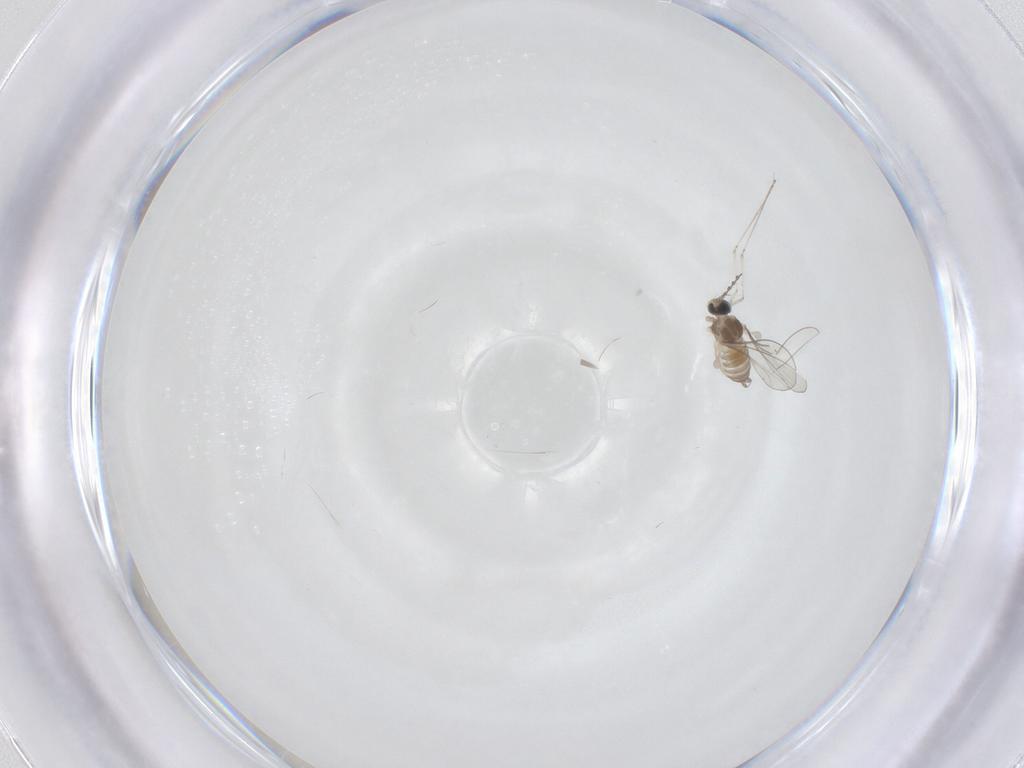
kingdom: Animalia
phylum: Arthropoda
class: Insecta
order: Diptera
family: Cecidomyiidae
